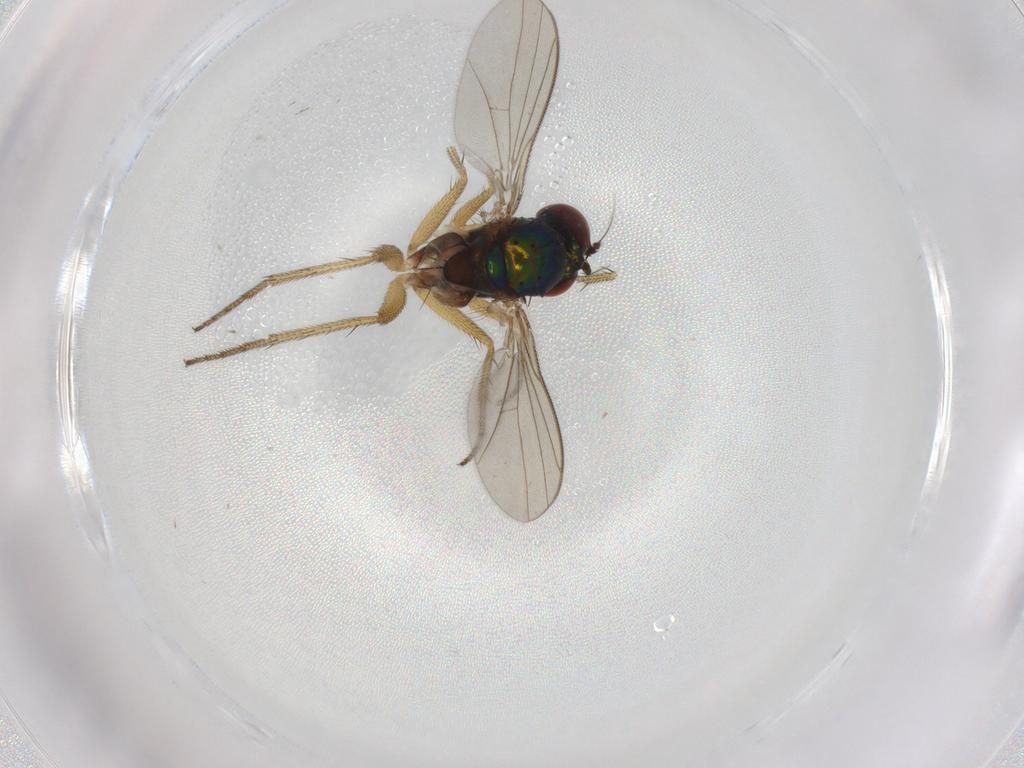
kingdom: Animalia
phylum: Arthropoda
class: Insecta
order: Diptera
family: Dolichopodidae
